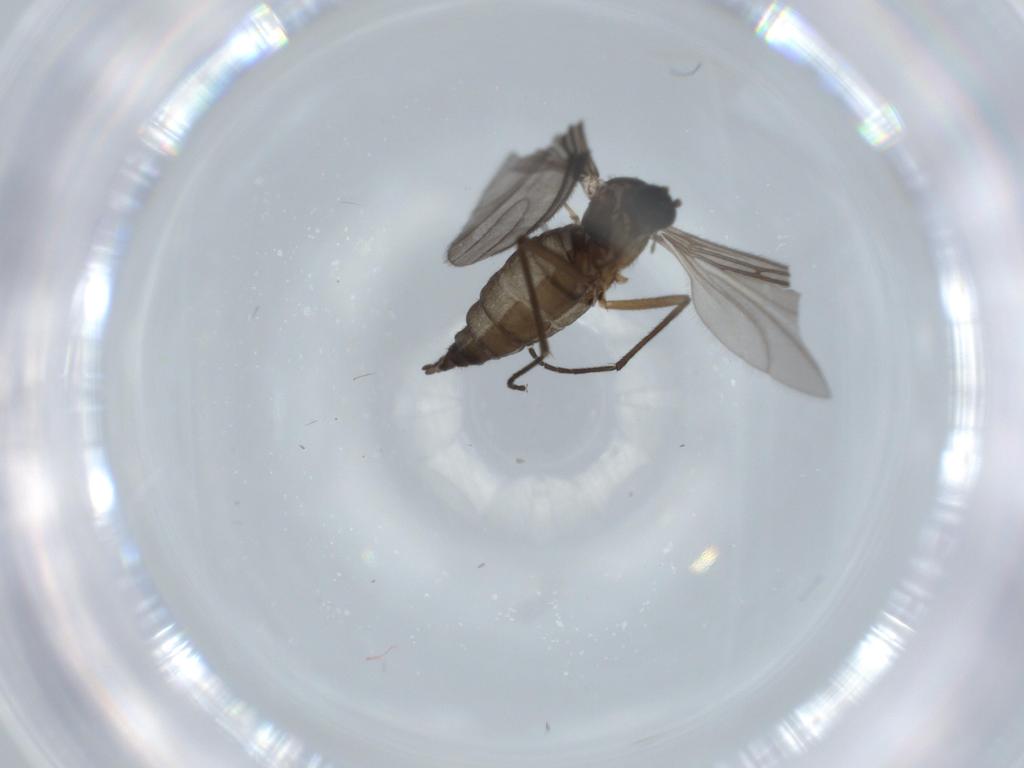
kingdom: Animalia
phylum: Arthropoda
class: Insecta
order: Diptera
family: Sciaridae
